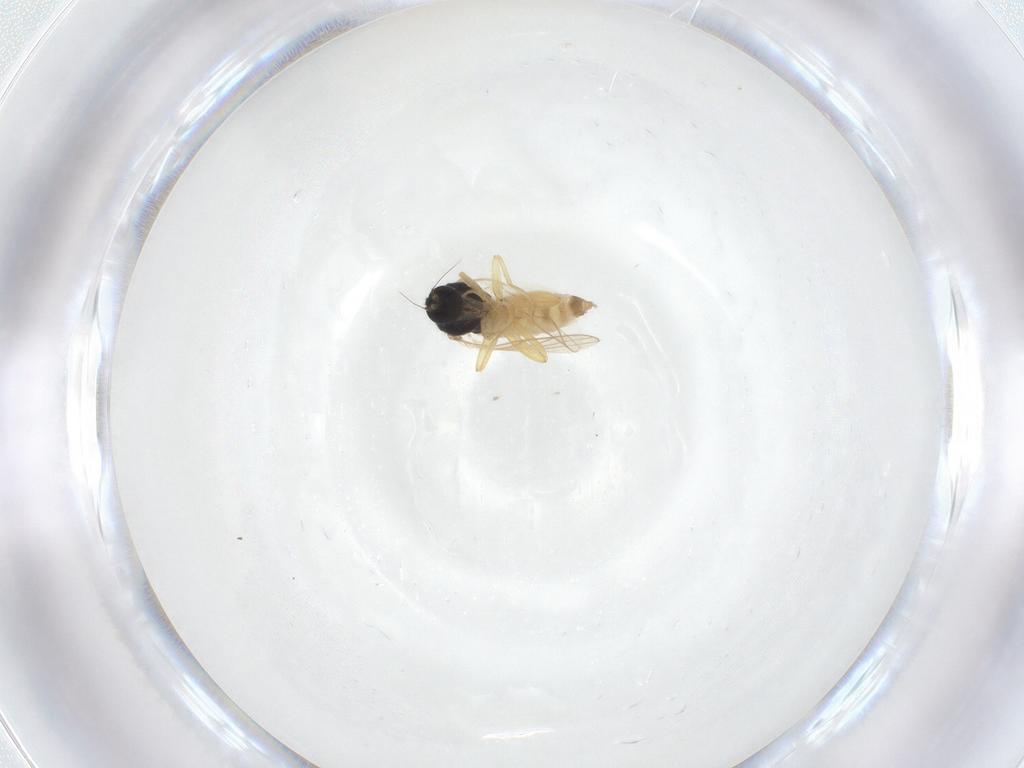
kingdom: Animalia
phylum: Arthropoda
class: Insecta
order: Diptera
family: Hybotidae
